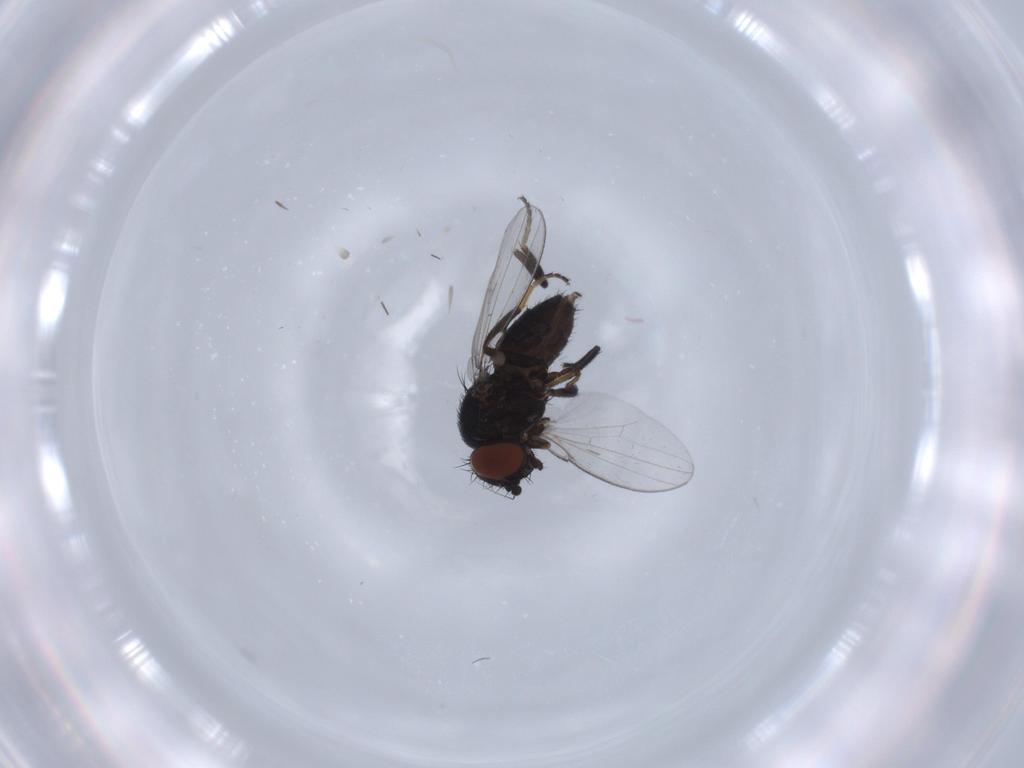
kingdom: Animalia
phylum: Arthropoda
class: Insecta
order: Diptera
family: Milichiidae
